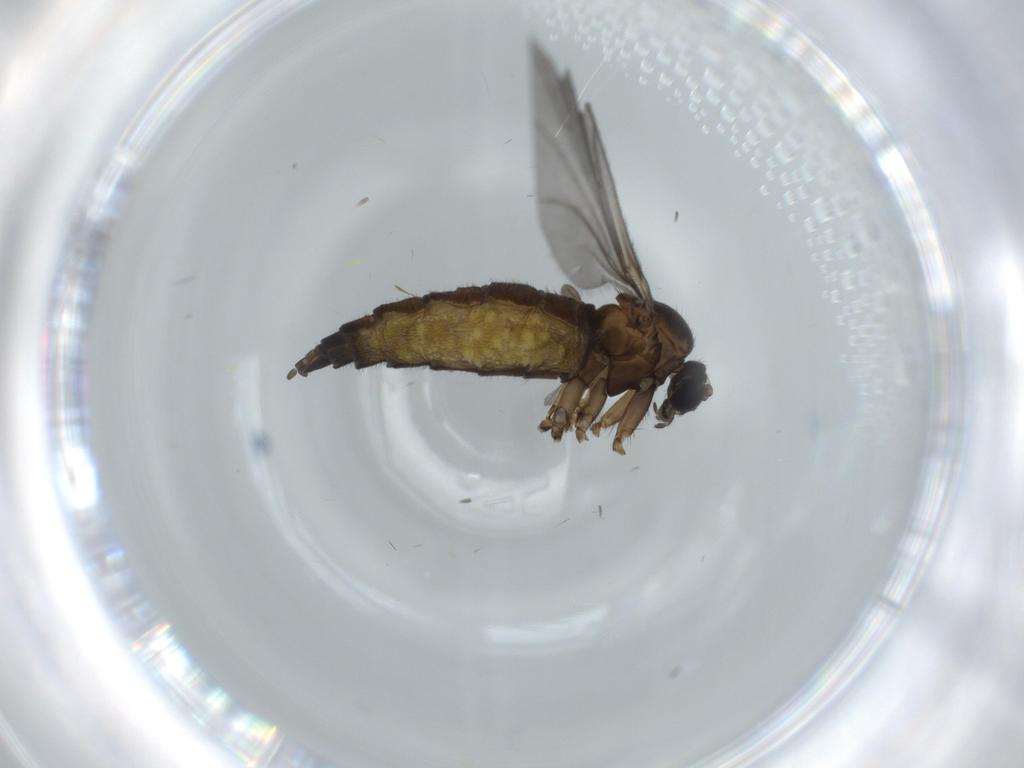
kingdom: Animalia
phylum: Arthropoda
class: Insecta
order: Diptera
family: Sciaridae
